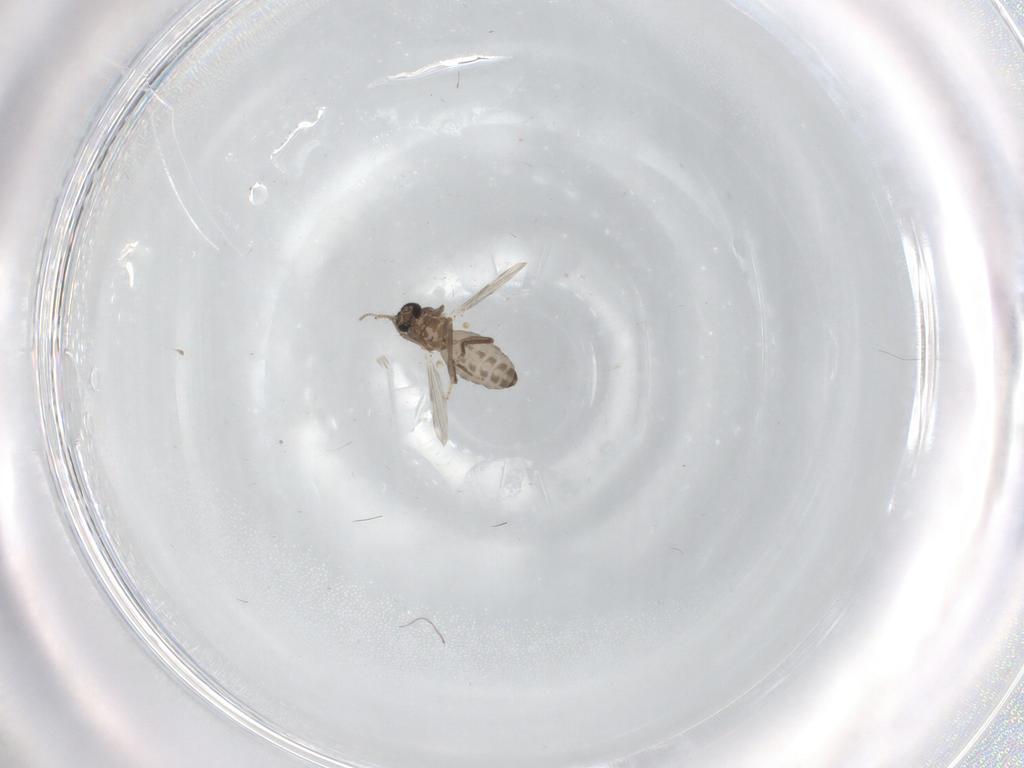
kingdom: Animalia
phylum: Arthropoda
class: Insecta
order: Diptera
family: Ceratopogonidae
